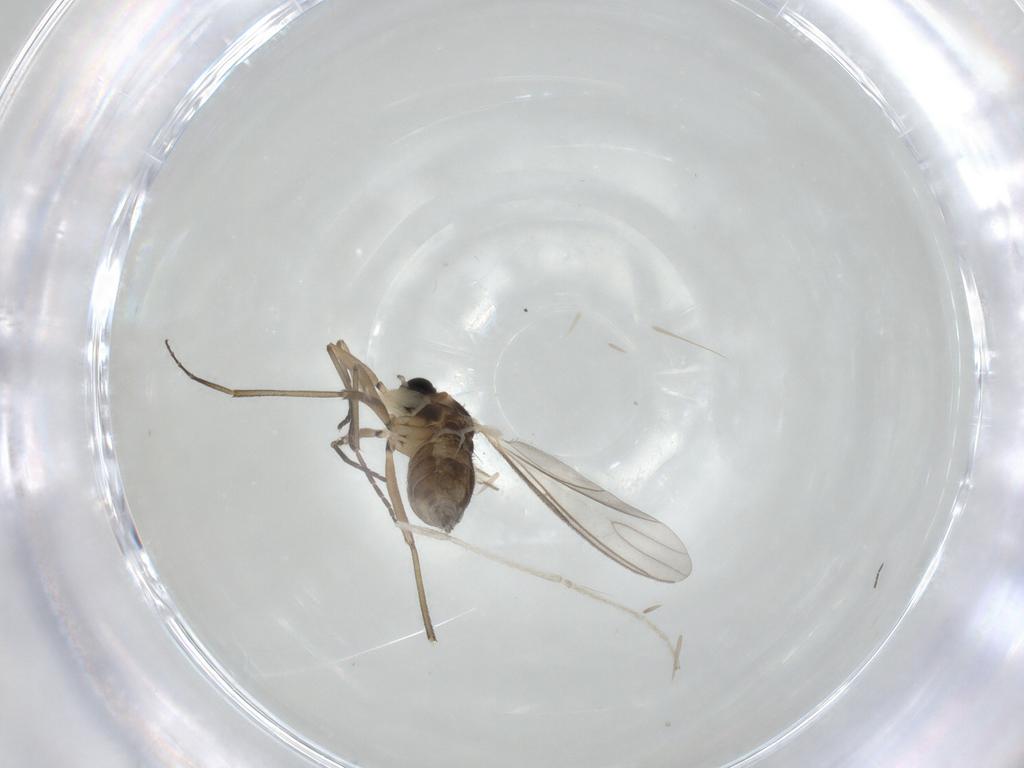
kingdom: Animalia
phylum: Arthropoda
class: Insecta
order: Diptera
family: Sciaridae
